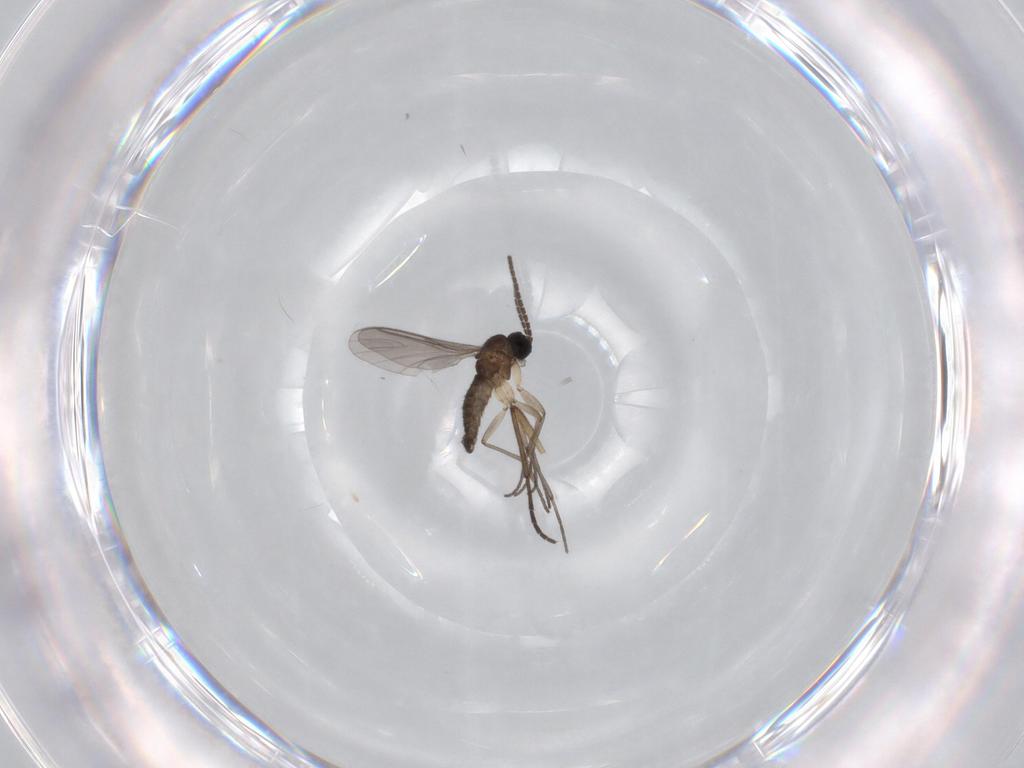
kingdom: Animalia
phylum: Arthropoda
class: Insecta
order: Diptera
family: Sciaridae
